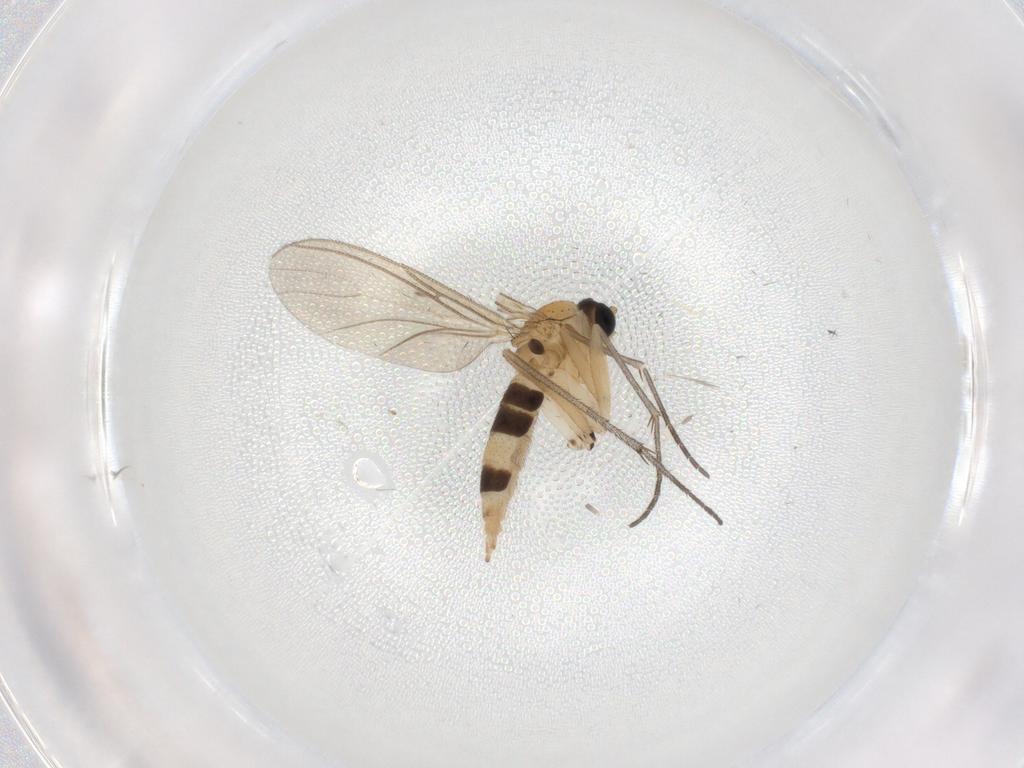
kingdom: Animalia
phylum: Arthropoda
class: Insecta
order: Diptera
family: Sciaridae
